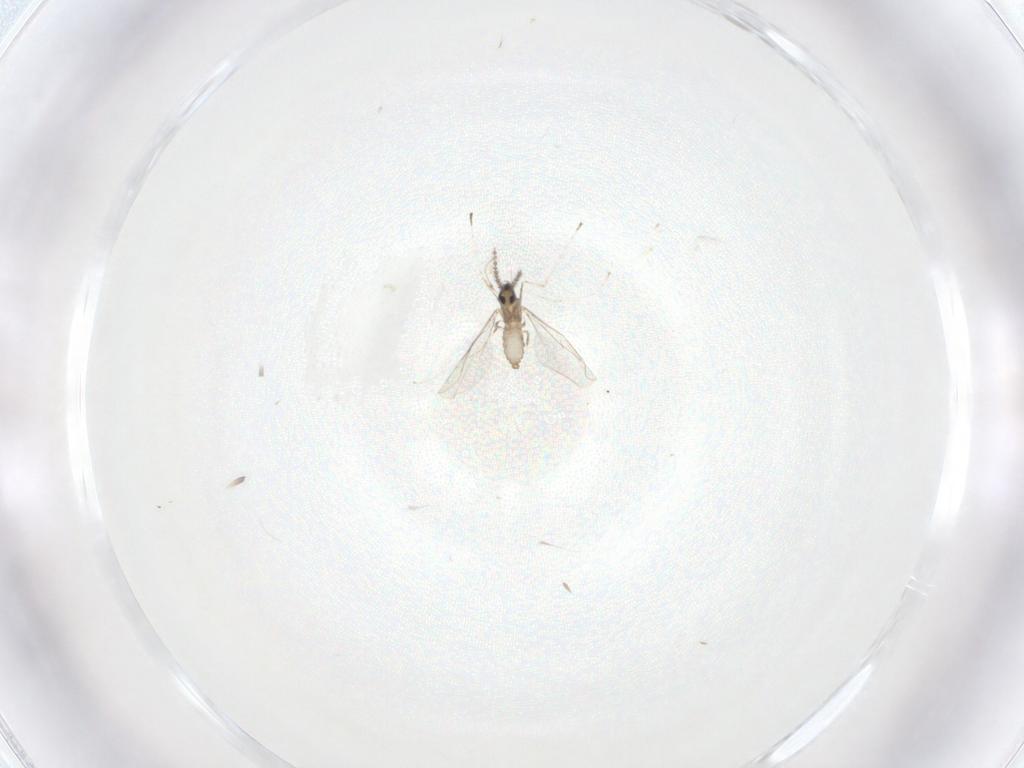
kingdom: Animalia
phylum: Arthropoda
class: Insecta
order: Diptera
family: Cecidomyiidae
